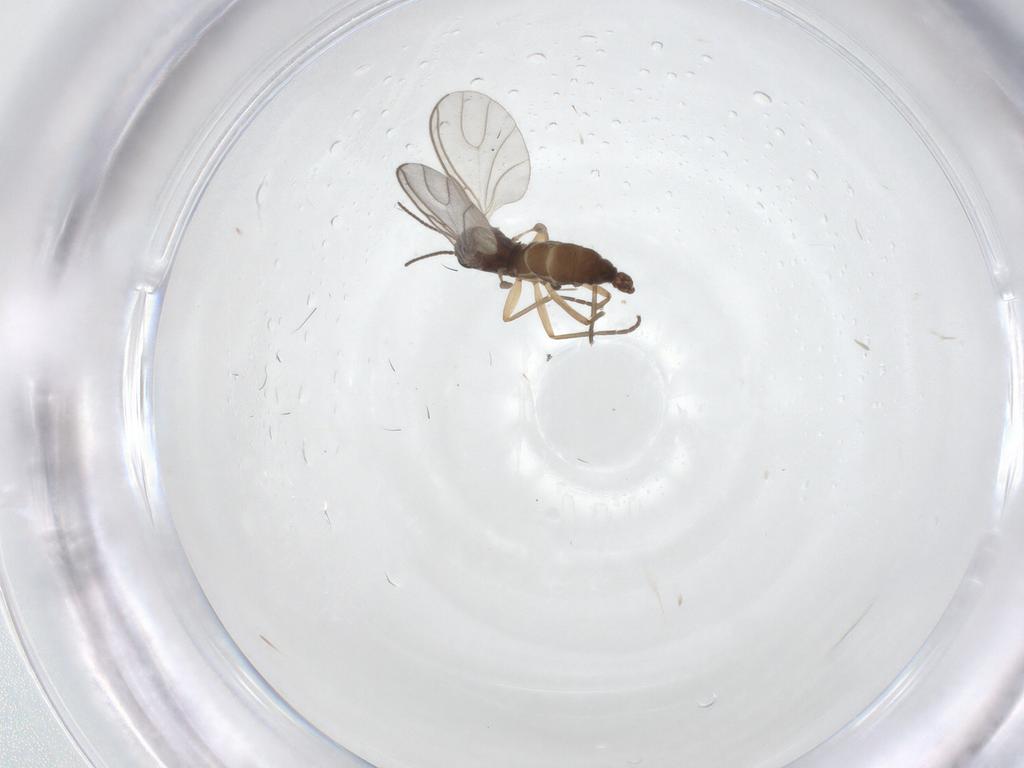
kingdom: Animalia
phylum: Arthropoda
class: Insecta
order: Diptera
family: Sciaridae
